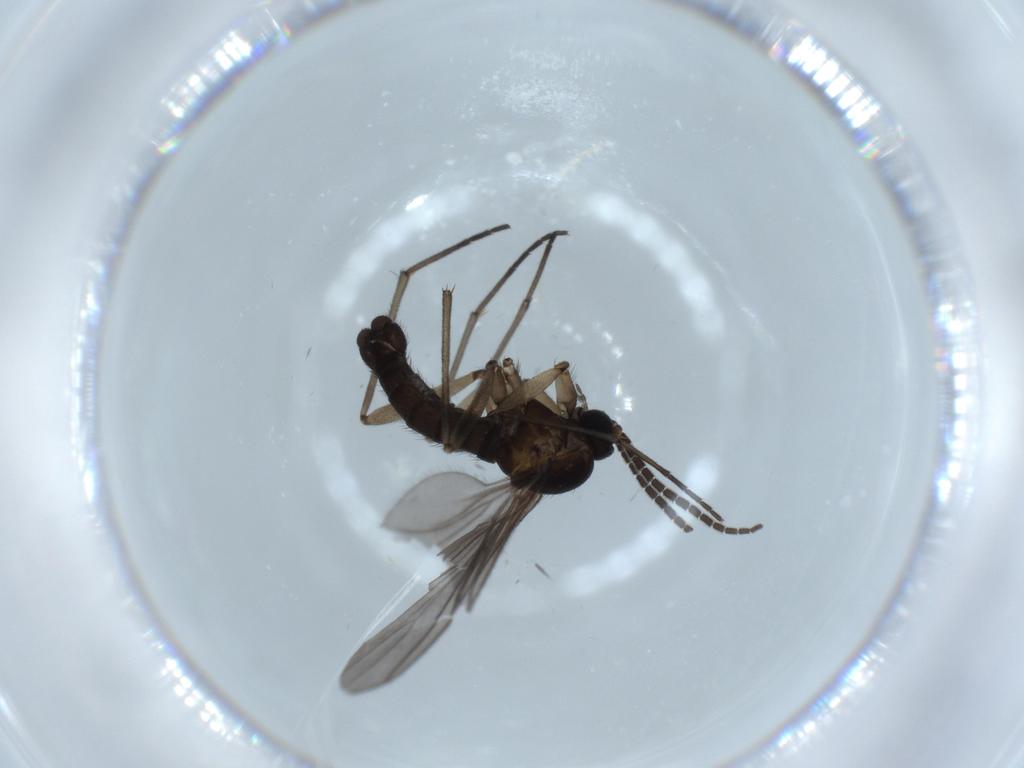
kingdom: Animalia
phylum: Arthropoda
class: Insecta
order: Diptera
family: Sciaridae
